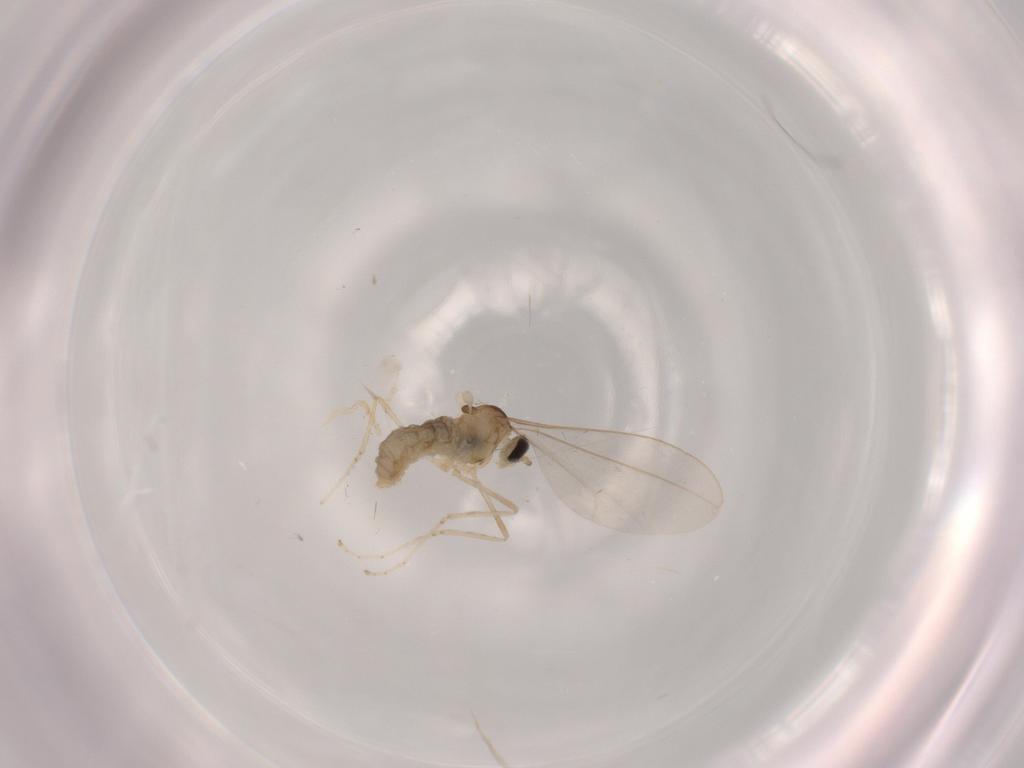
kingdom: Animalia
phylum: Arthropoda
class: Insecta
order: Diptera
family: Cecidomyiidae
